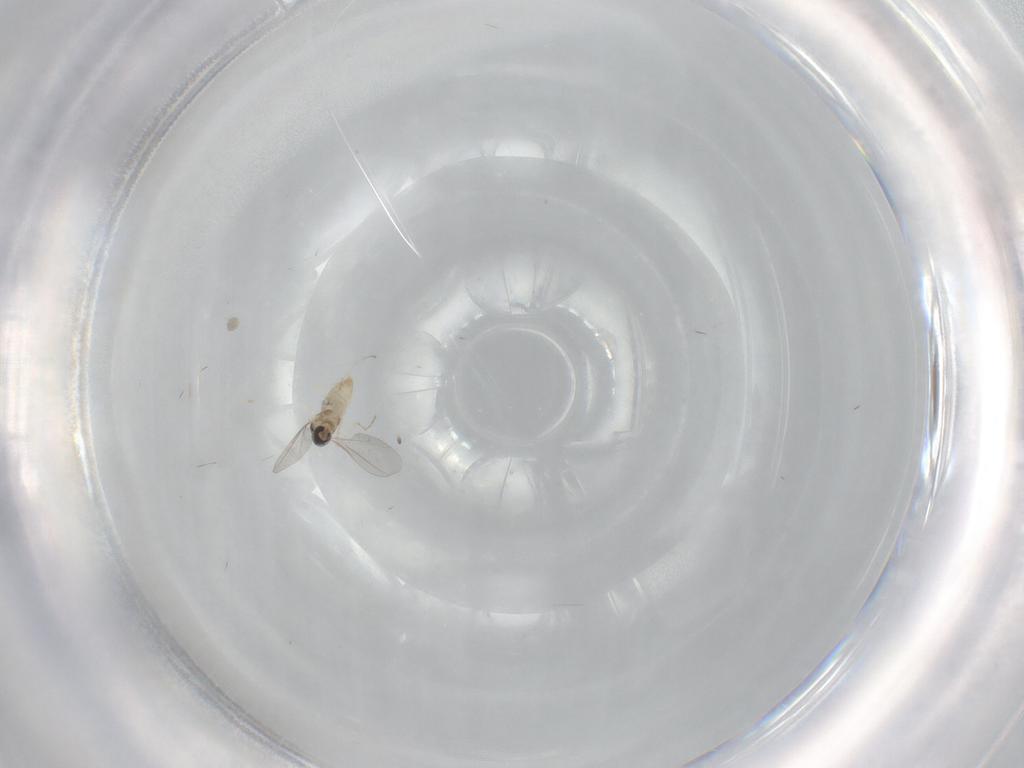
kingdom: Animalia
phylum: Arthropoda
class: Insecta
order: Diptera
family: Cecidomyiidae
